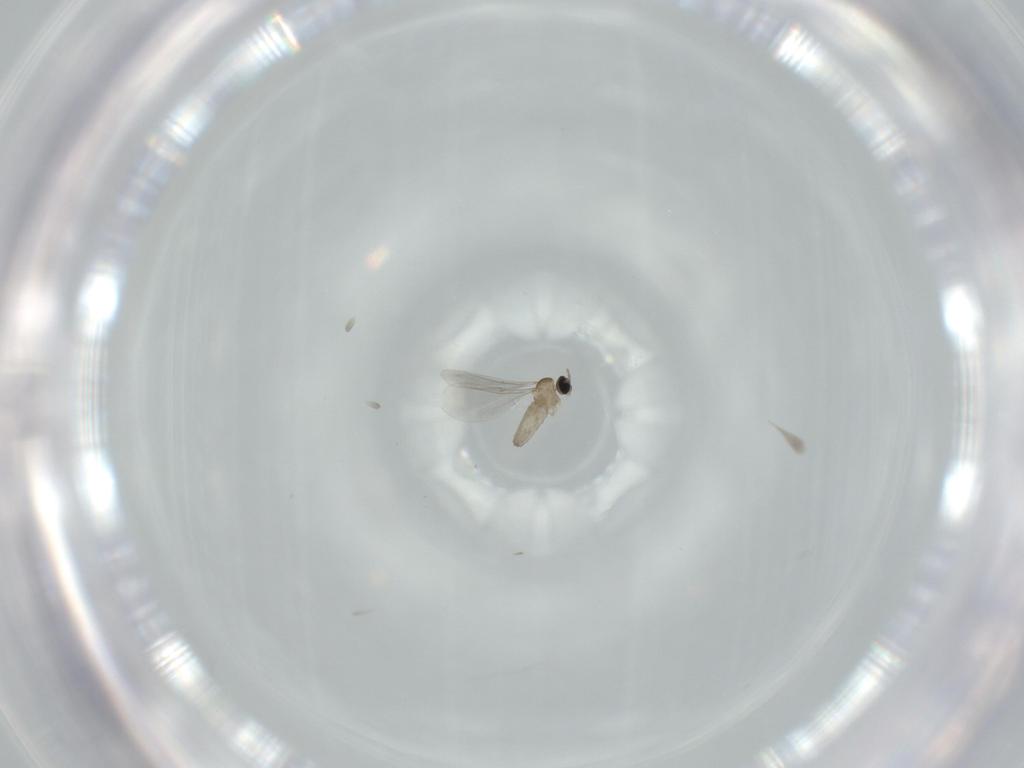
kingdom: Animalia
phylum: Arthropoda
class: Insecta
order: Diptera
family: Cecidomyiidae
